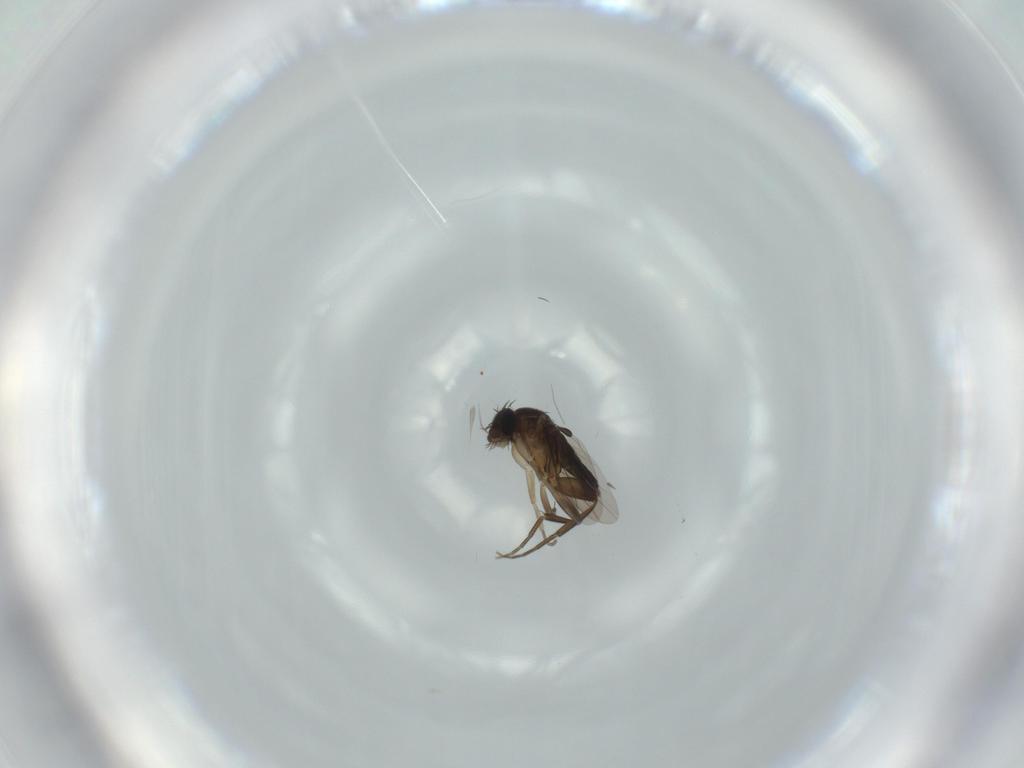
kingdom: Animalia
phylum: Arthropoda
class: Insecta
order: Diptera
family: Phoridae
